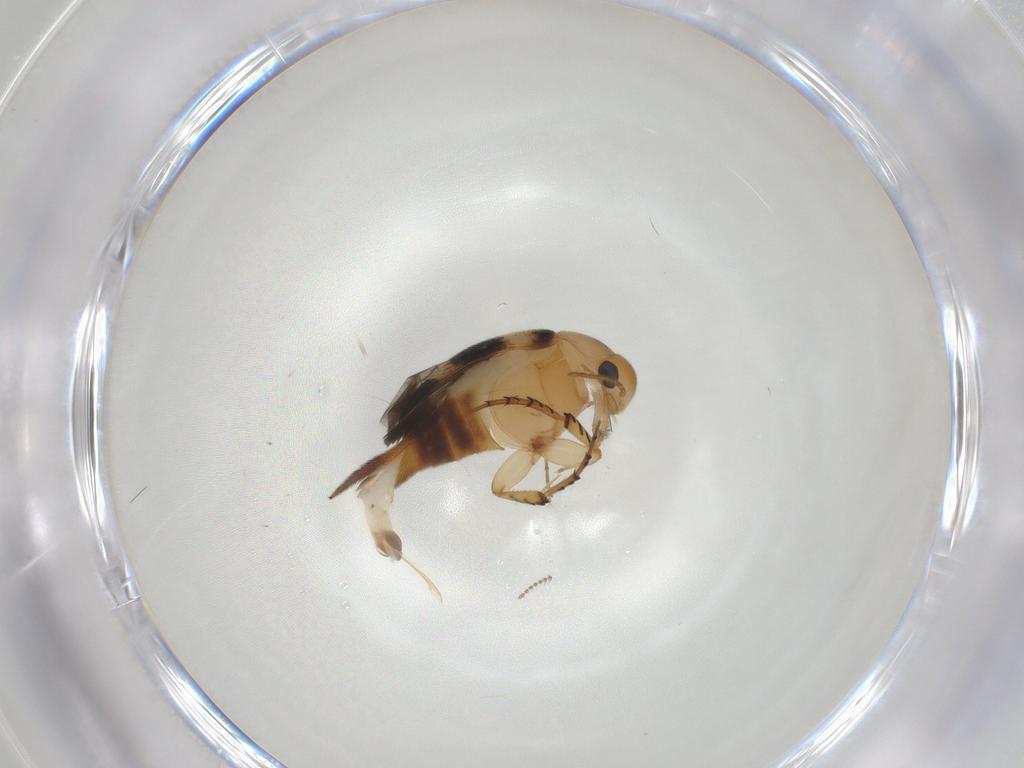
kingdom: Animalia
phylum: Arthropoda
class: Insecta
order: Coleoptera
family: Mordellidae
